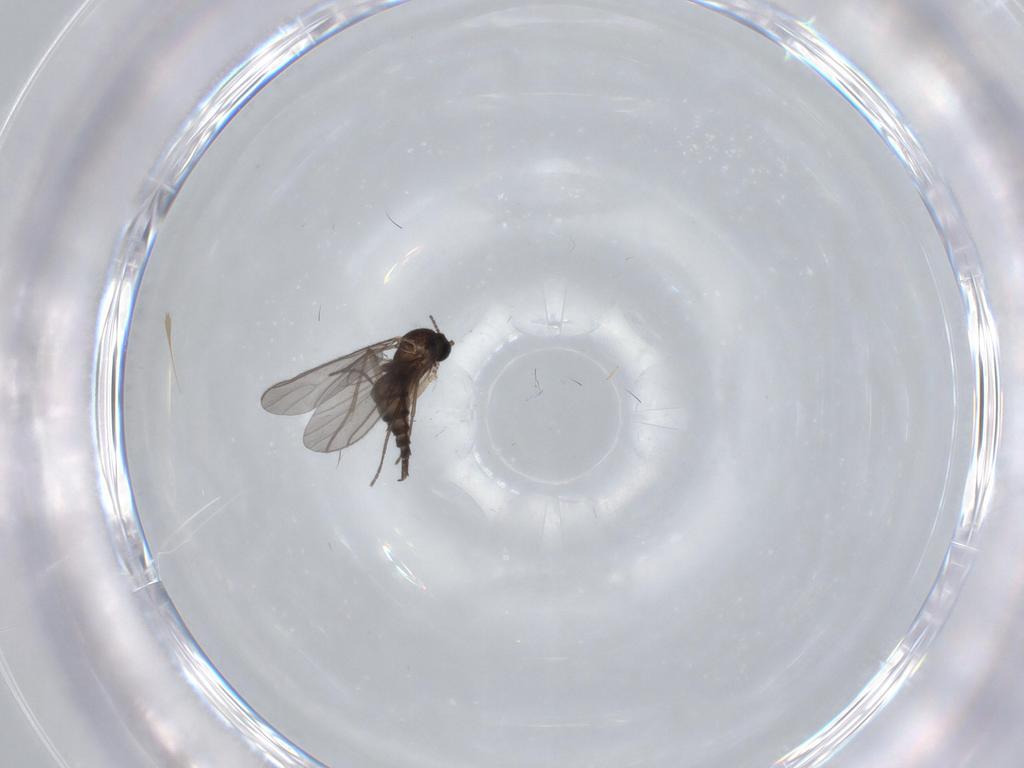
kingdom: Animalia
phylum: Arthropoda
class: Insecta
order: Diptera
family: Sciaridae
